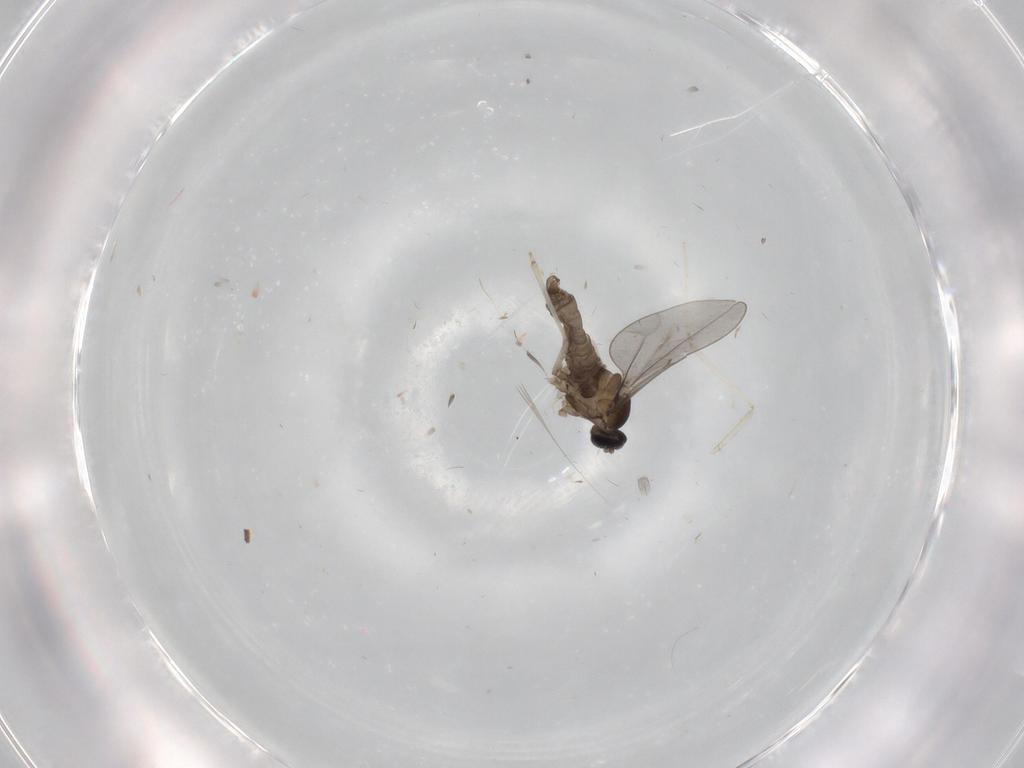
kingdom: Animalia
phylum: Arthropoda
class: Insecta
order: Diptera
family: Cecidomyiidae
